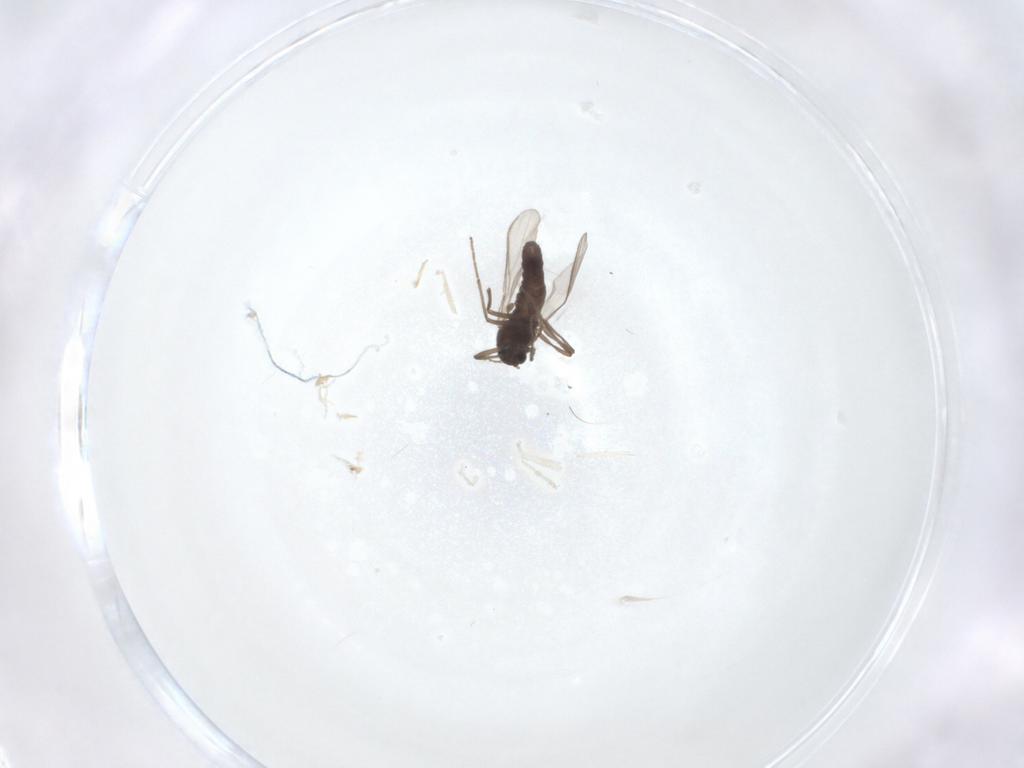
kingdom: Animalia
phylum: Arthropoda
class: Insecta
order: Diptera
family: Chironomidae
